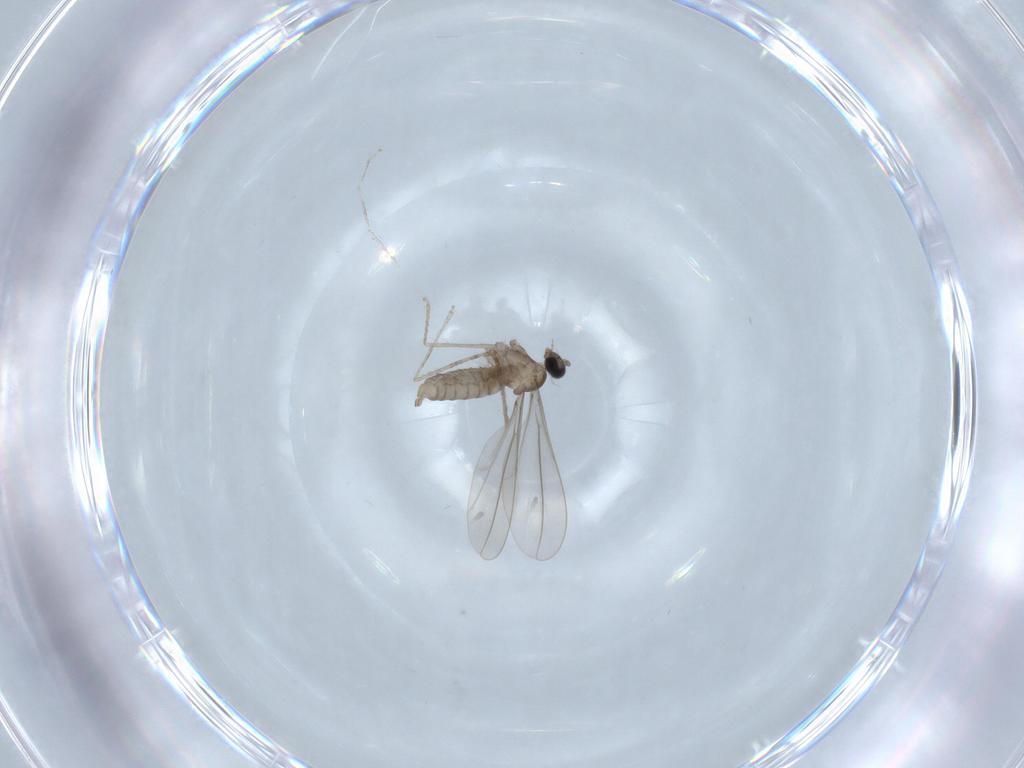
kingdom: Animalia
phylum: Arthropoda
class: Insecta
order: Diptera
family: Cecidomyiidae
